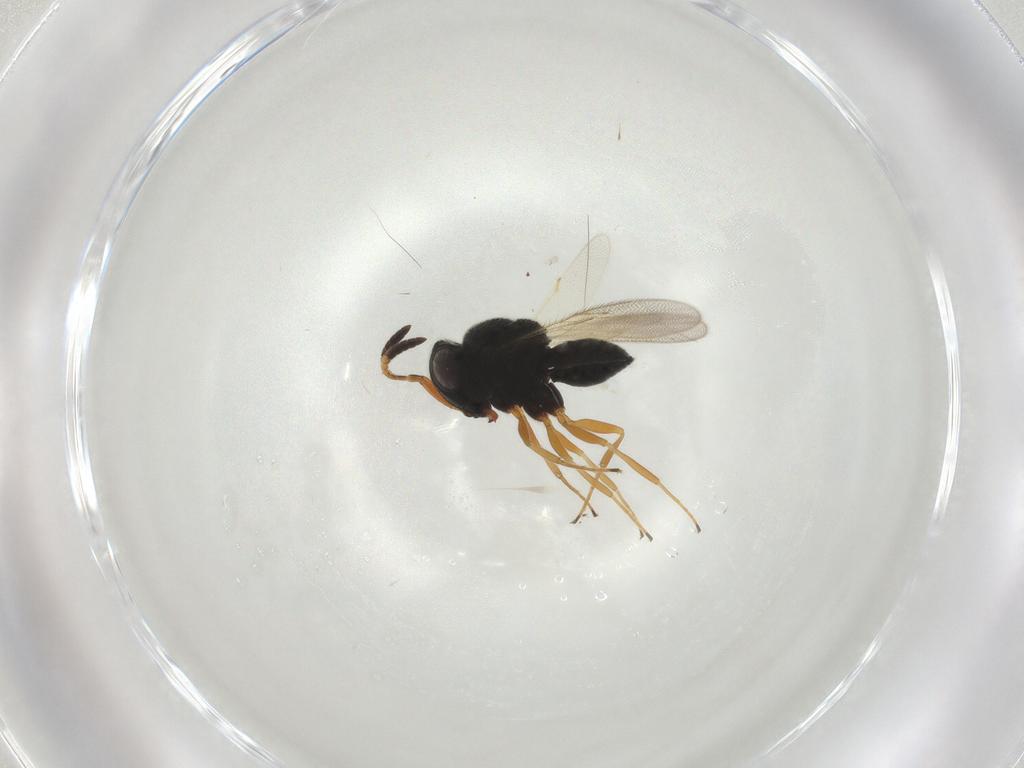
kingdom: Animalia
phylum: Arthropoda
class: Insecta
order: Hymenoptera
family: Scelionidae
